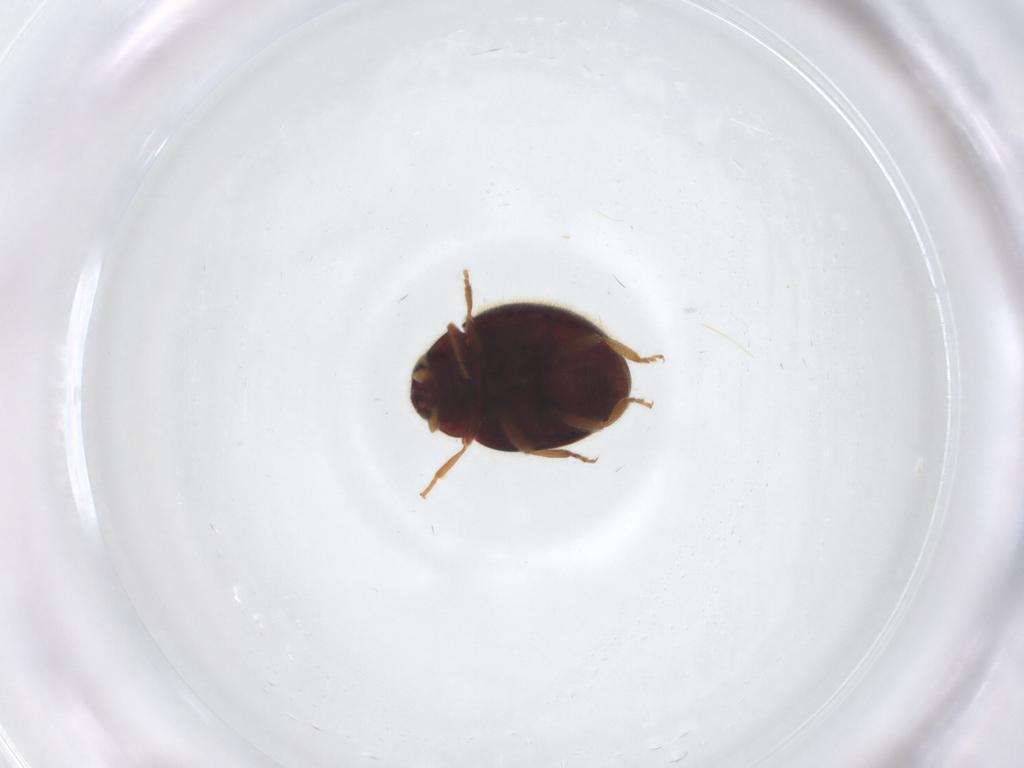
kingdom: Animalia
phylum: Arthropoda
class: Insecta
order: Coleoptera
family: Coccinellidae
